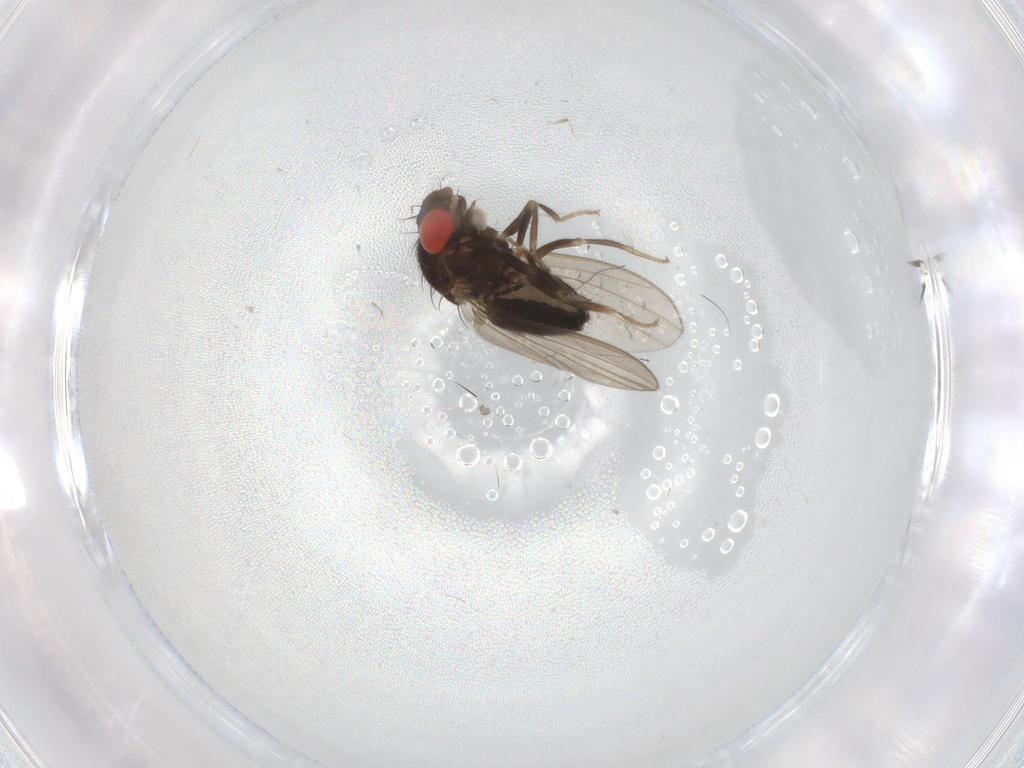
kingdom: Animalia
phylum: Arthropoda
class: Insecta
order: Diptera
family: Drosophilidae
